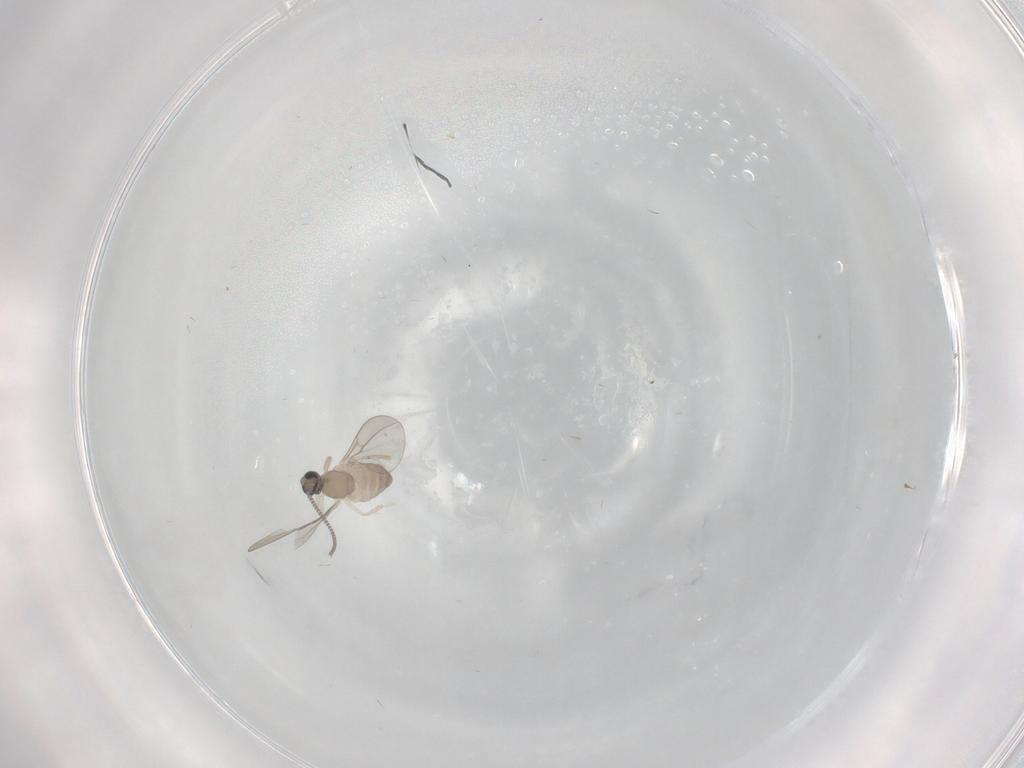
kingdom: Animalia
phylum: Arthropoda
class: Insecta
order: Diptera
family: Cecidomyiidae
